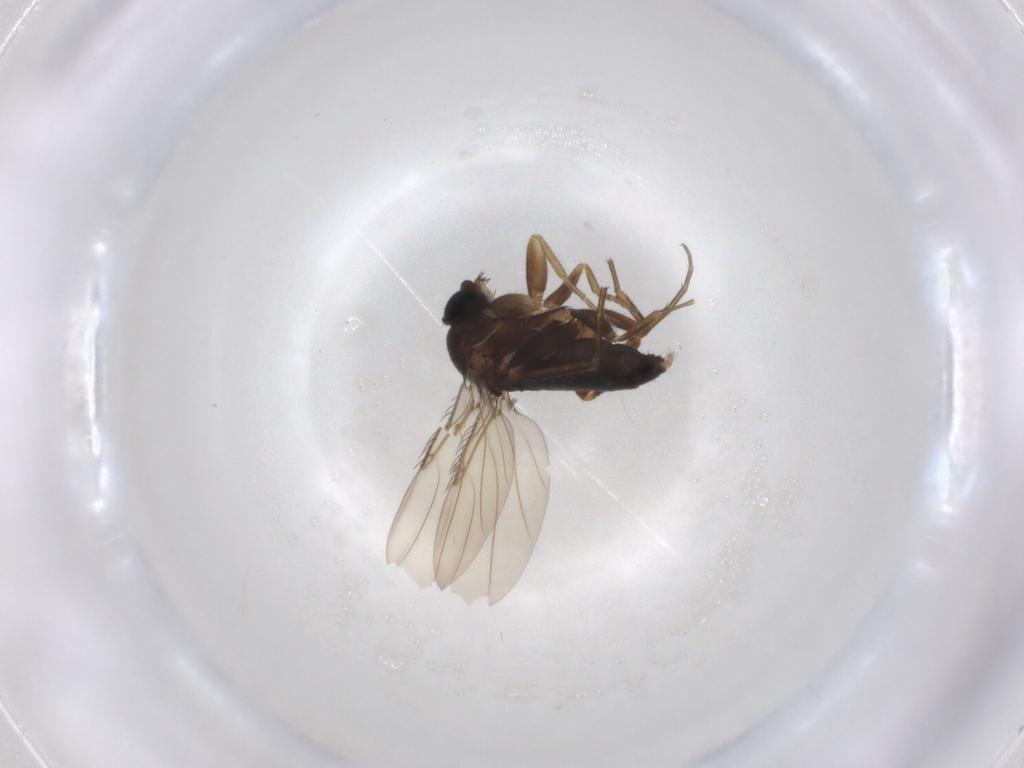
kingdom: Animalia
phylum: Arthropoda
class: Insecta
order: Diptera
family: Phoridae
